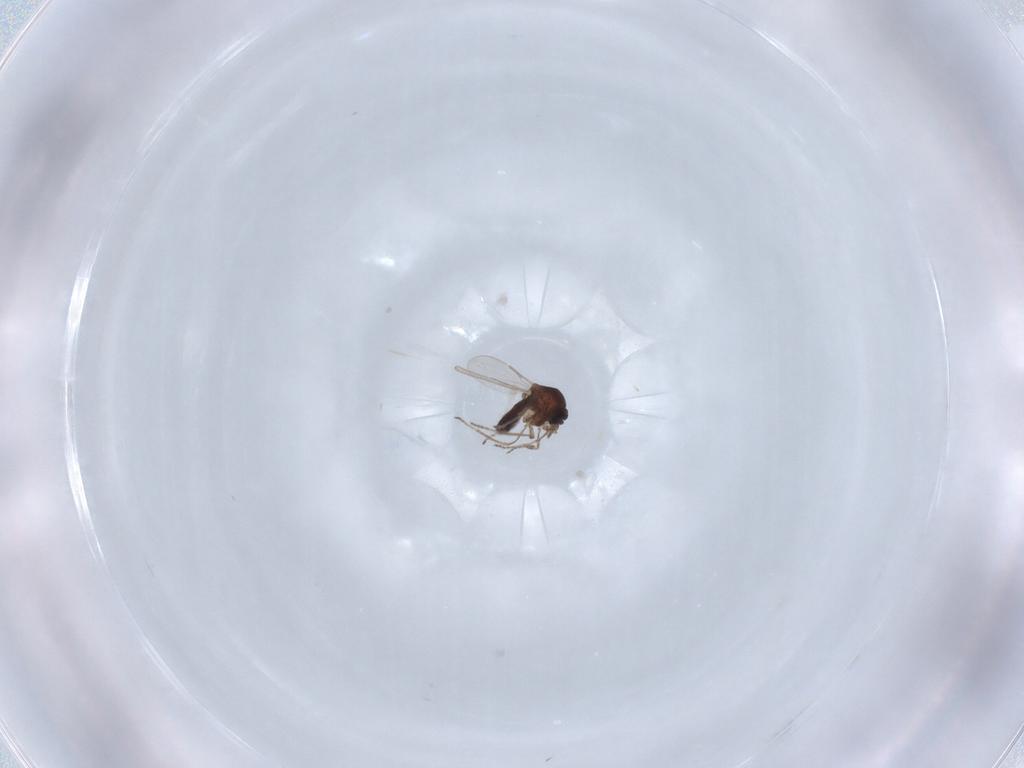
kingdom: Animalia
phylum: Arthropoda
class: Insecta
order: Diptera
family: Ceratopogonidae
